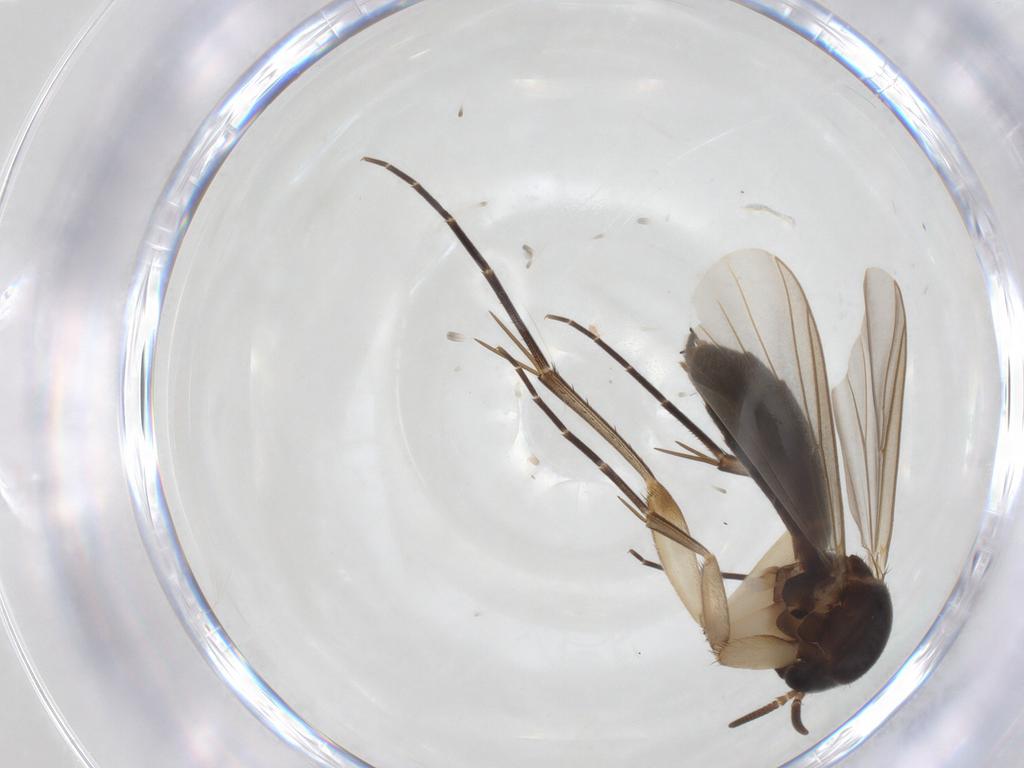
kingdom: Animalia
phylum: Arthropoda
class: Insecta
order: Diptera
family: Mycetophilidae
